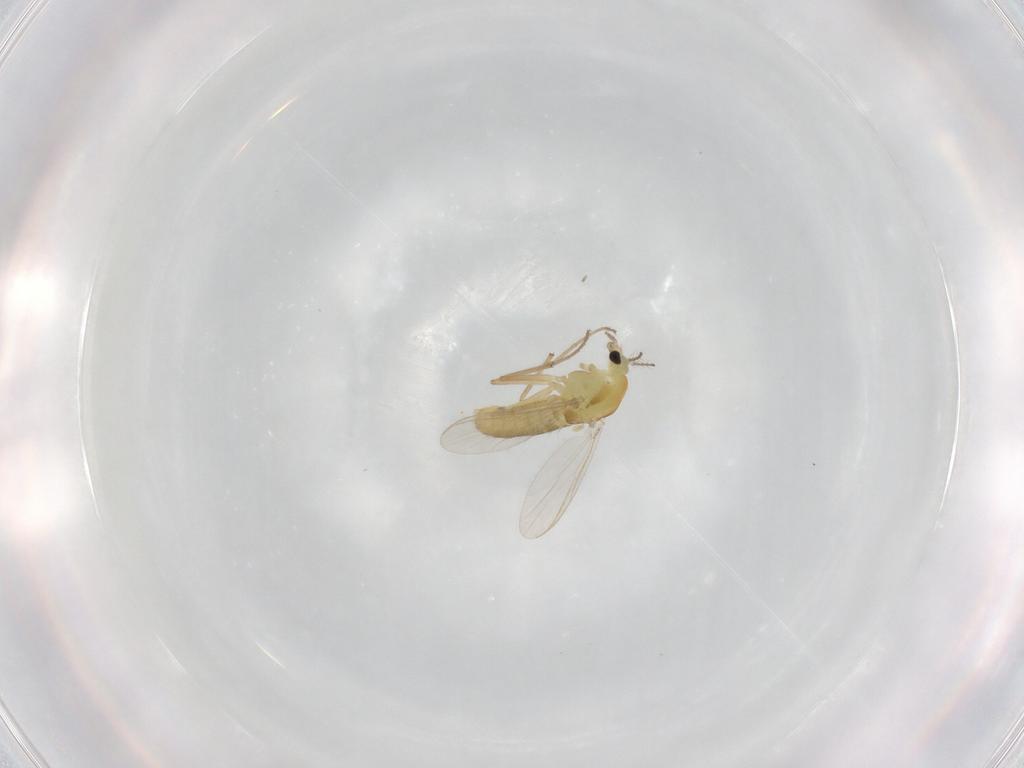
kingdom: Animalia
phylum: Arthropoda
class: Insecta
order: Diptera
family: Chironomidae
